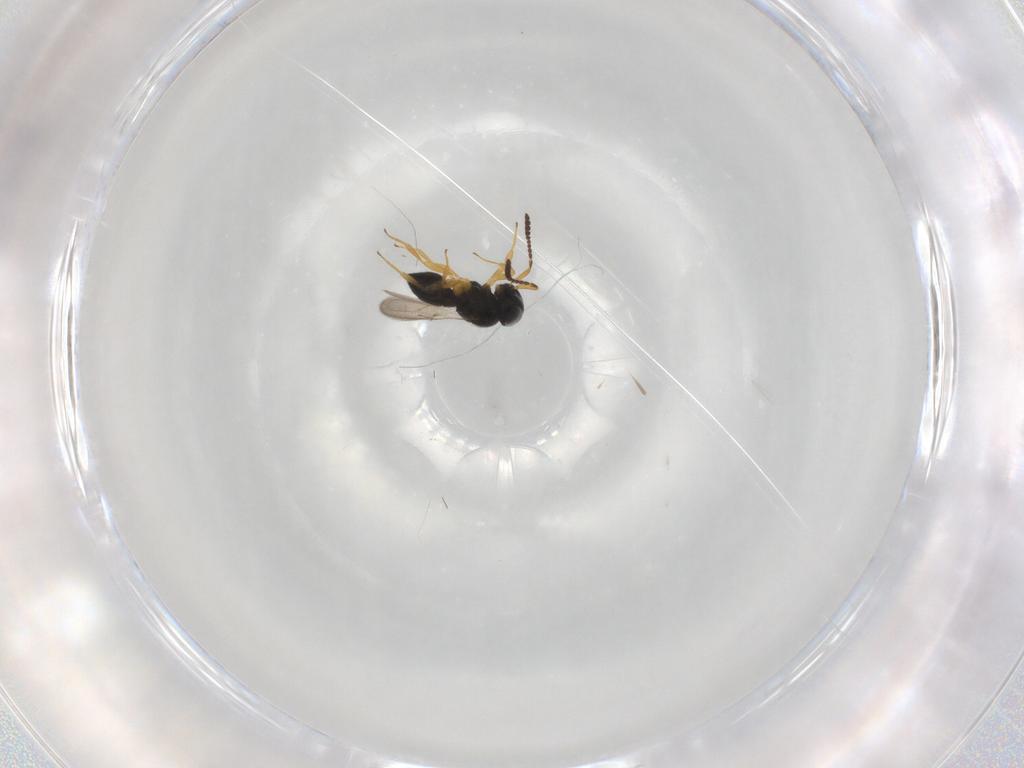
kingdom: Animalia
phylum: Arthropoda
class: Insecta
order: Hymenoptera
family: Scelionidae
